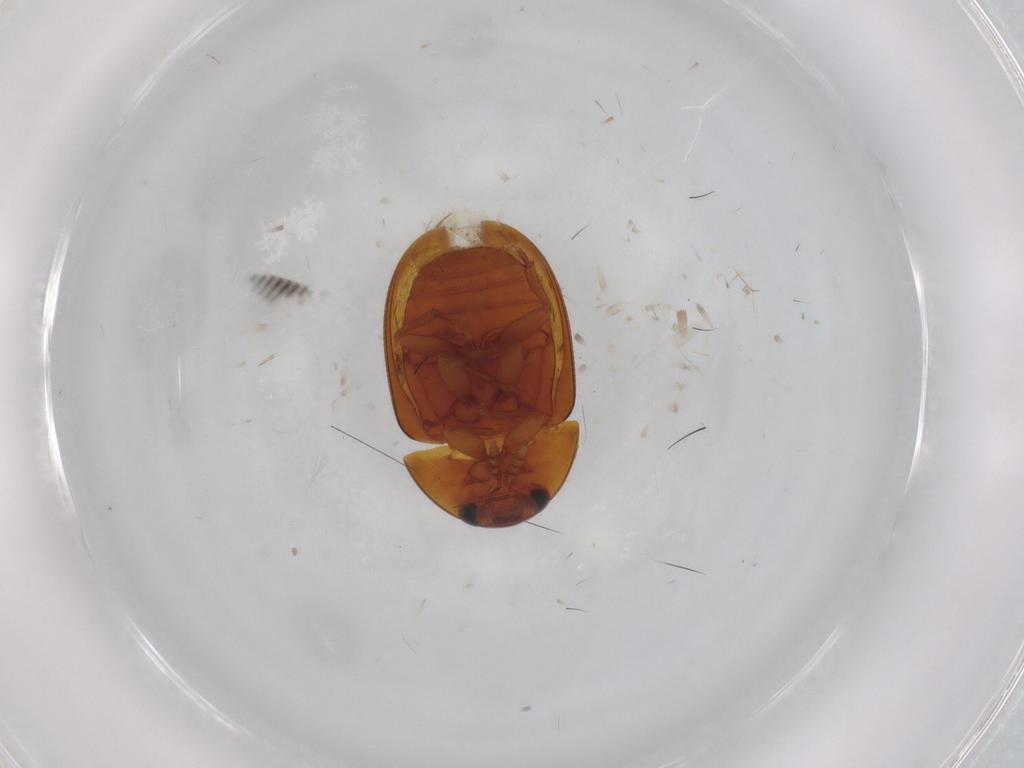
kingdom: Animalia
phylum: Arthropoda
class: Insecta
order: Coleoptera
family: Phalacridae
